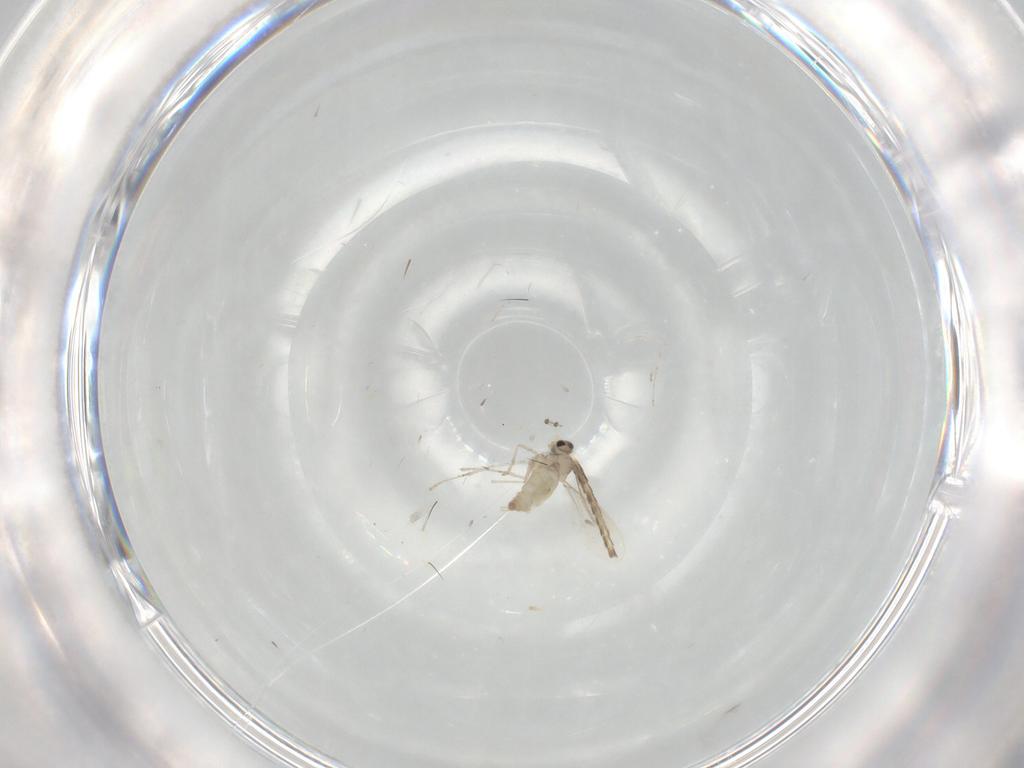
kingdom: Animalia
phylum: Arthropoda
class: Insecta
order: Diptera
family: Cecidomyiidae
